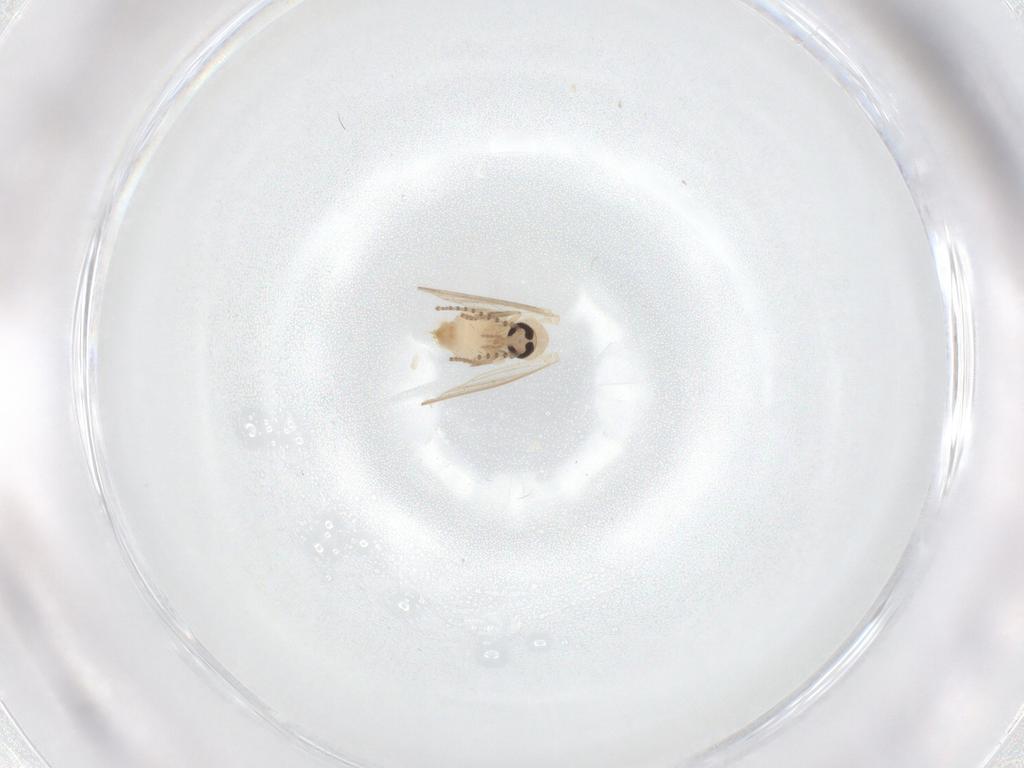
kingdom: Animalia
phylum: Arthropoda
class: Insecta
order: Diptera
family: Psychodidae
